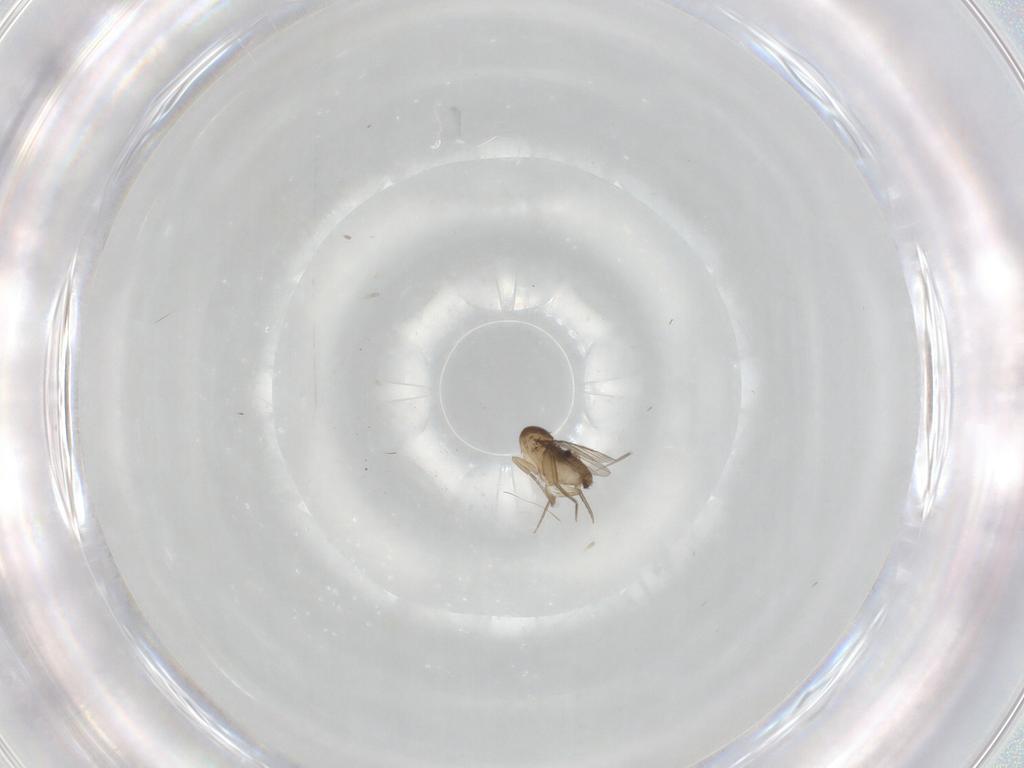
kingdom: Animalia
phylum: Arthropoda
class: Insecta
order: Diptera
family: Phoridae
